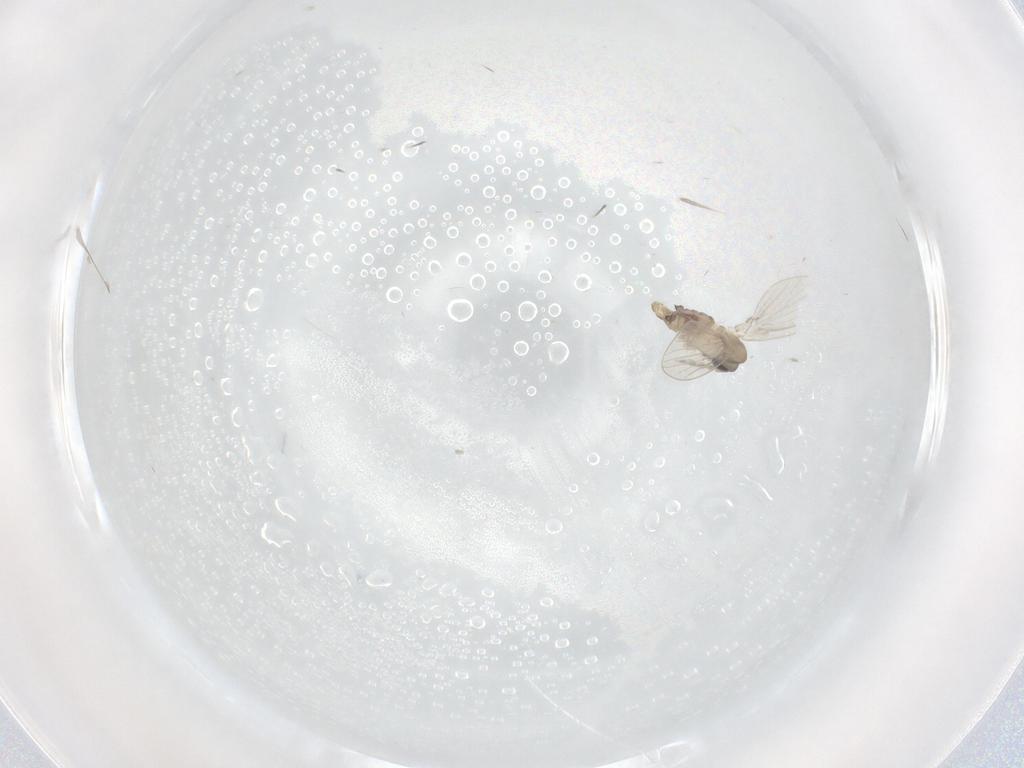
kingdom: Animalia
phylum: Arthropoda
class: Insecta
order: Diptera
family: Psychodidae
